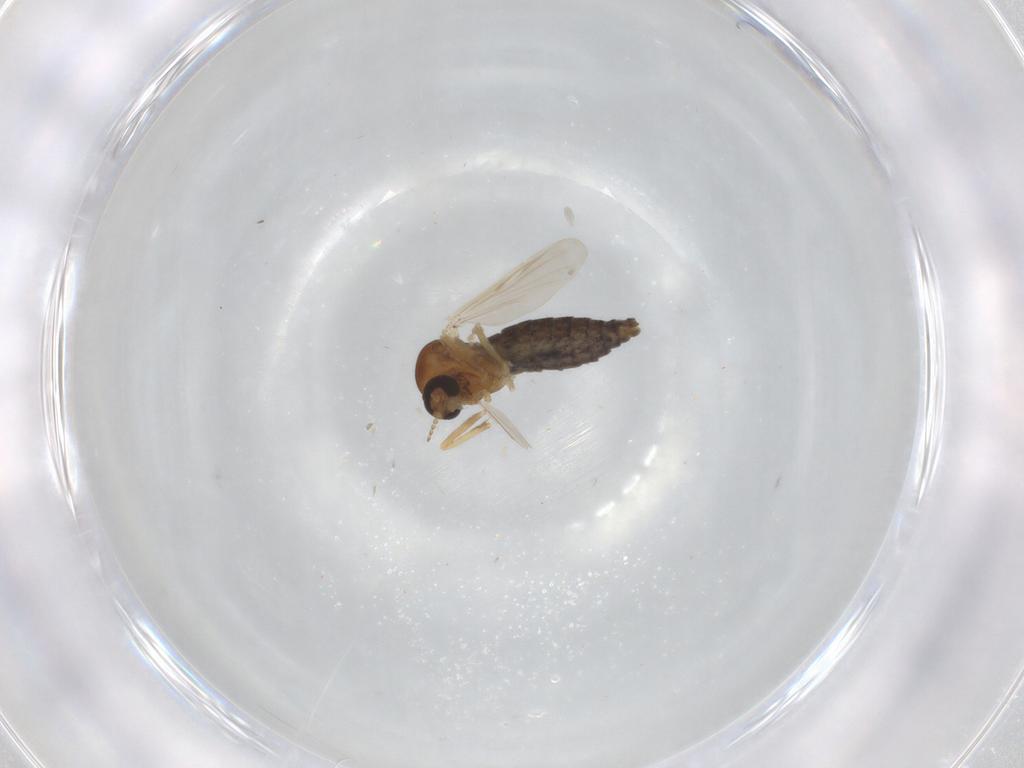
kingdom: Animalia
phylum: Arthropoda
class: Insecta
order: Diptera
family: Ceratopogonidae
